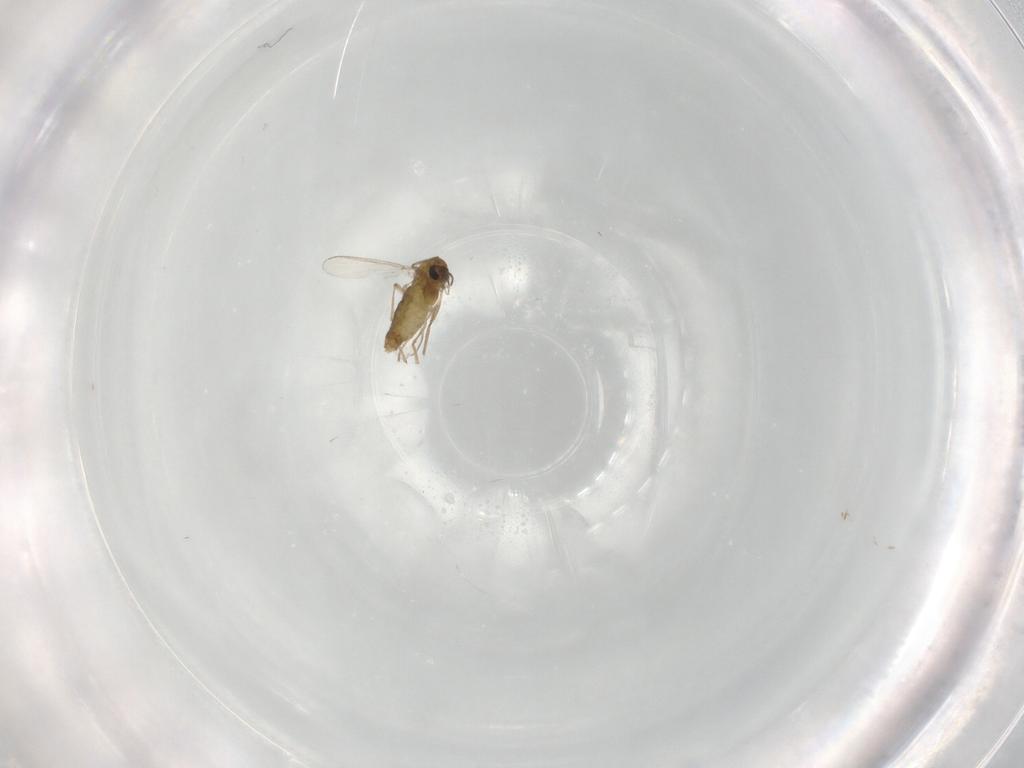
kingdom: Animalia
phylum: Arthropoda
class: Insecta
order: Diptera
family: Chironomidae
